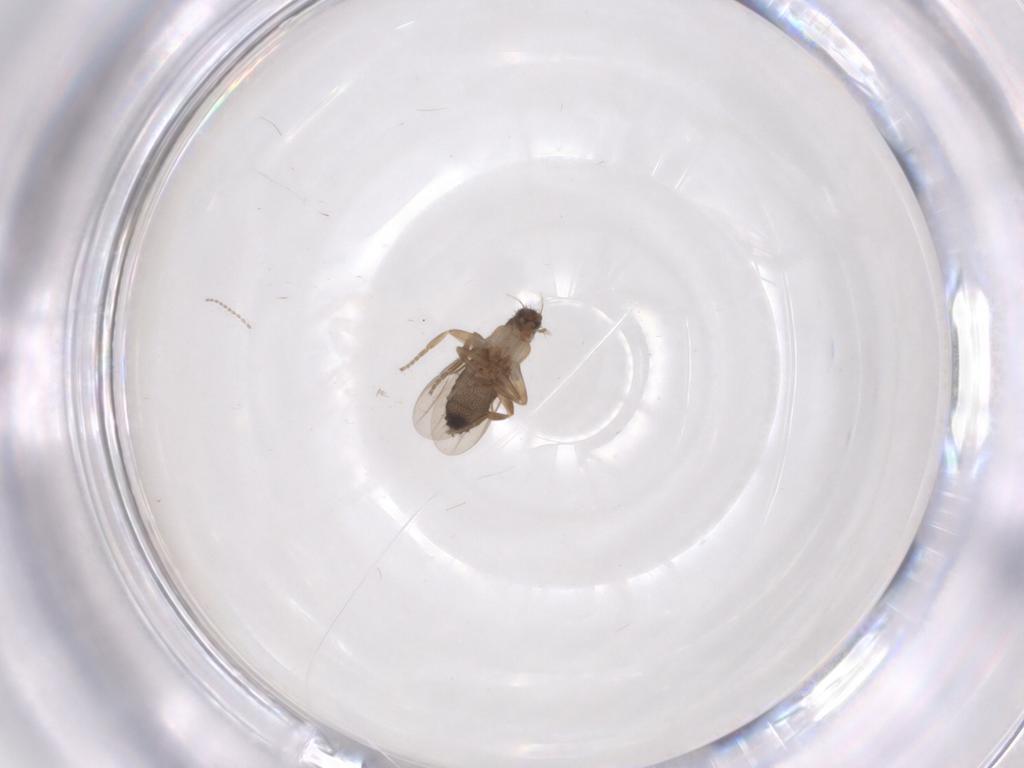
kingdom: Animalia
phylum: Arthropoda
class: Insecta
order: Diptera
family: Phoridae
